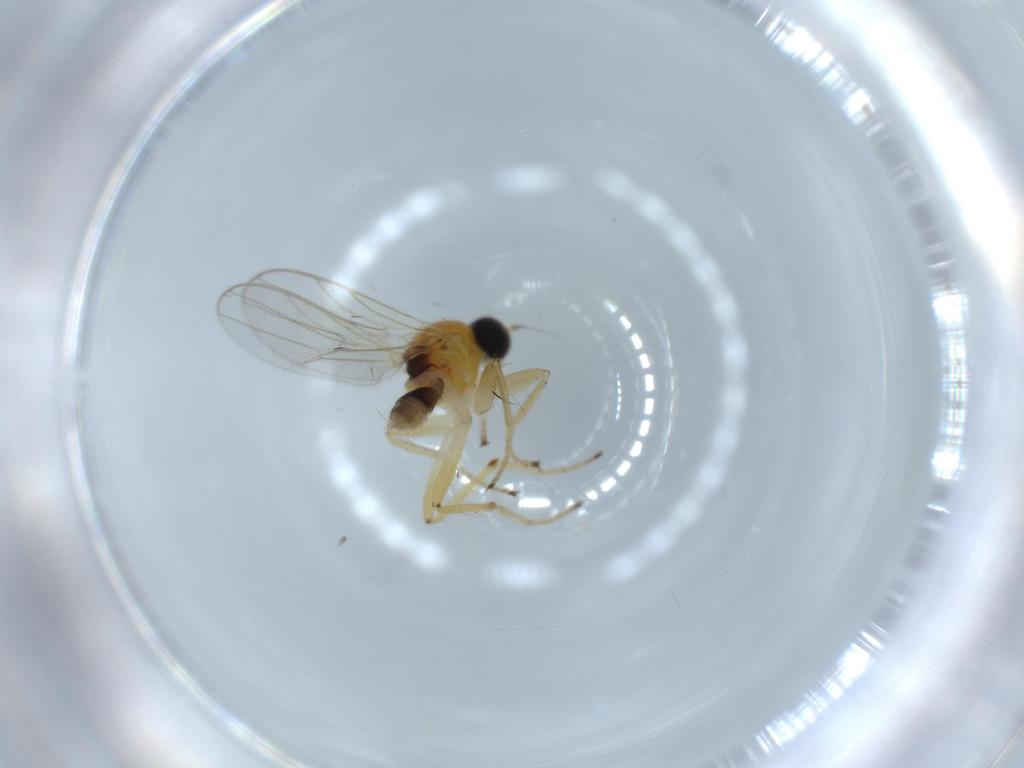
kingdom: Animalia
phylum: Arthropoda
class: Insecta
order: Diptera
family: Hybotidae
